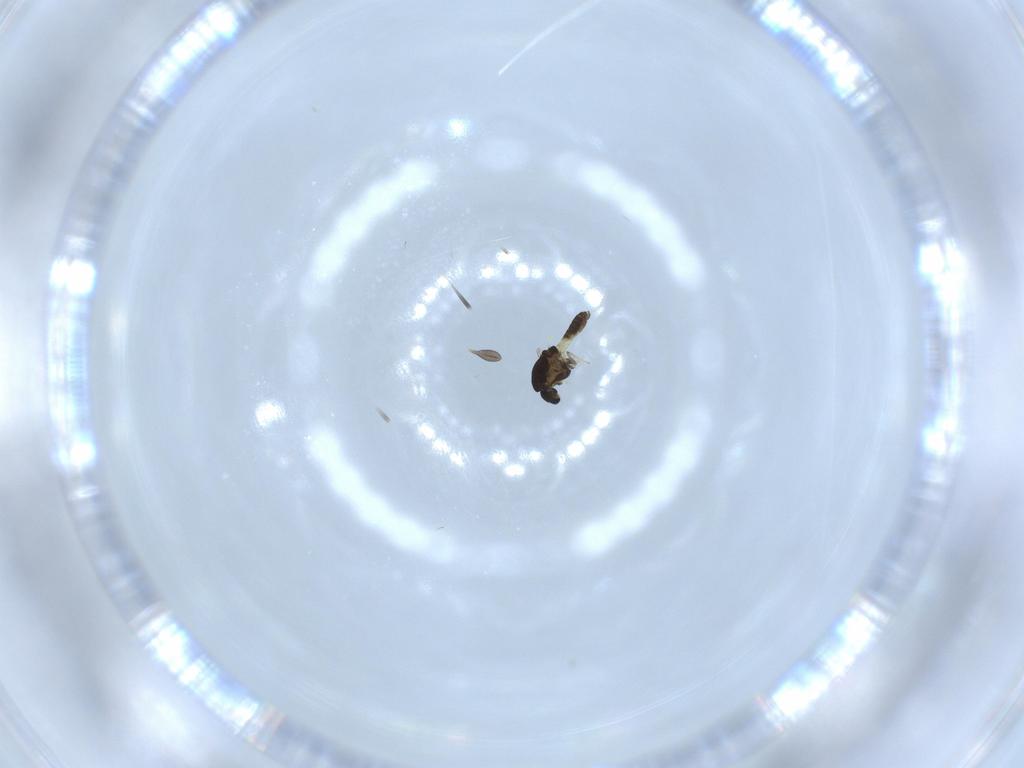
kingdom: Animalia
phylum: Arthropoda
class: Insecta
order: Diptera
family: Chironomidae
